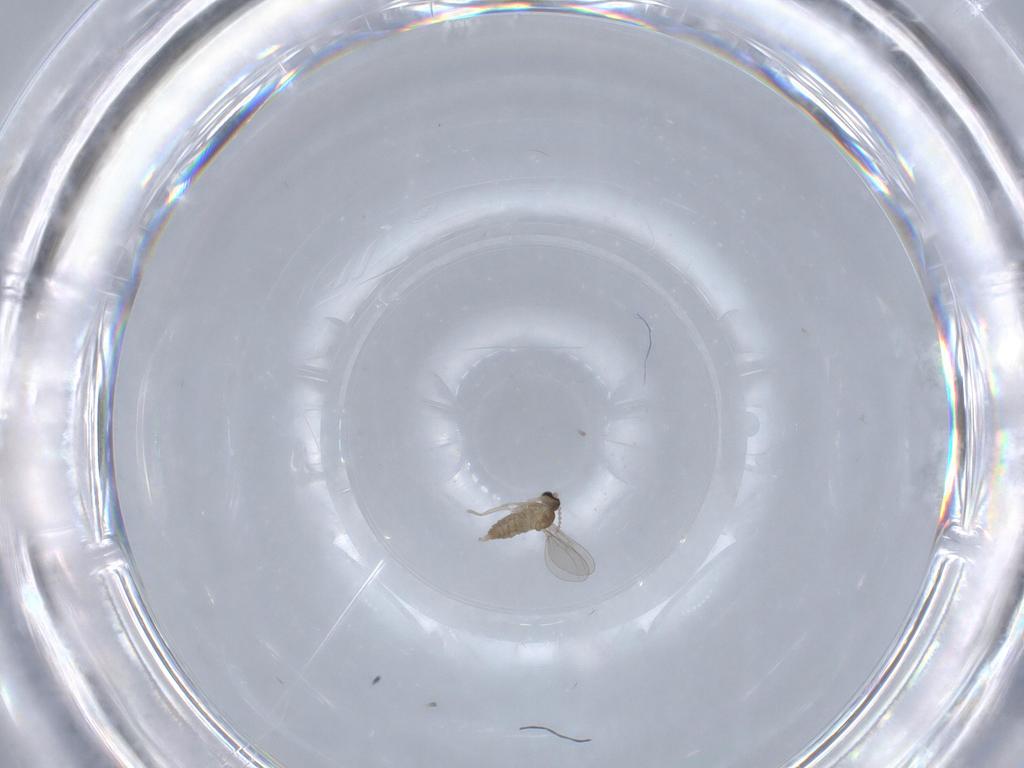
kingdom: Animalia
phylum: Arthropoda
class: Insecta
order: Diptera
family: Cecidomyiidae
